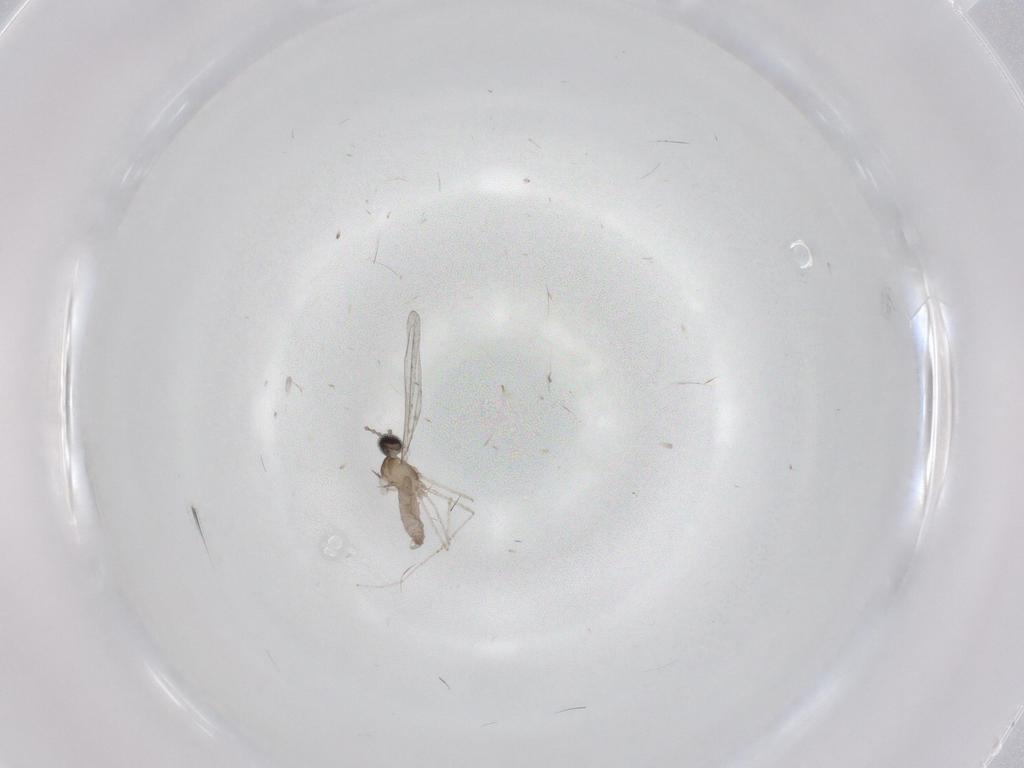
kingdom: Animalia
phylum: Arthropoda
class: Insecta
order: Diptera
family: Cecidomyiidae
